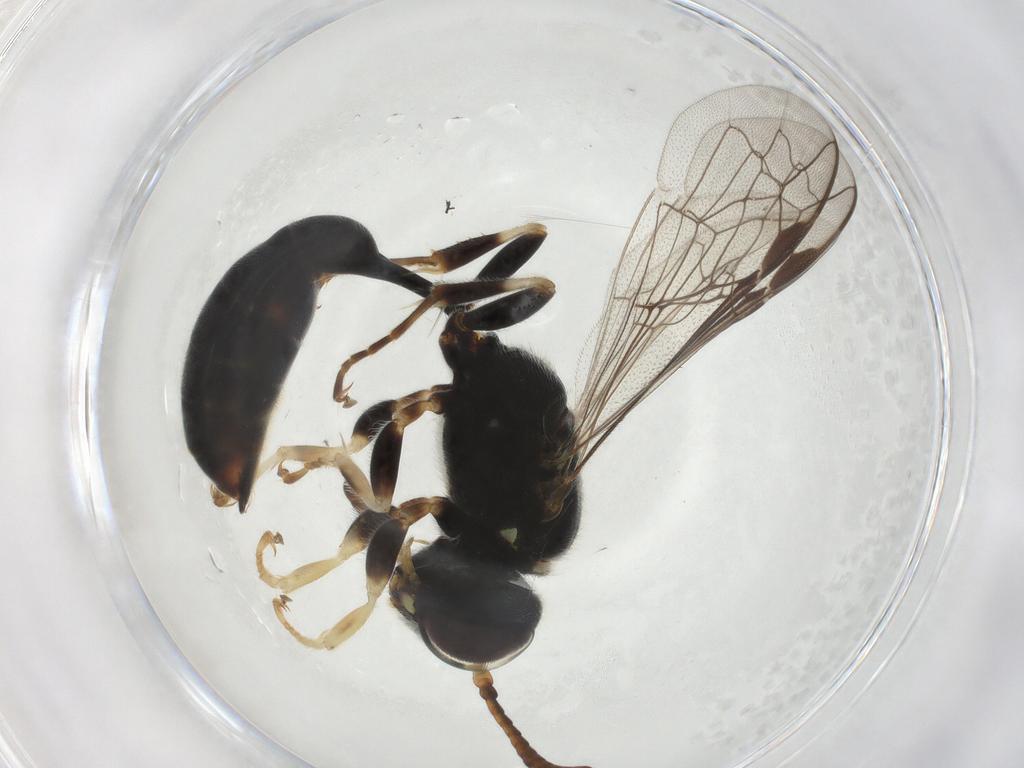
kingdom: Animalia
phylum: Arthropoda
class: Insecta
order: Hymenoptera
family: Crabronidae
